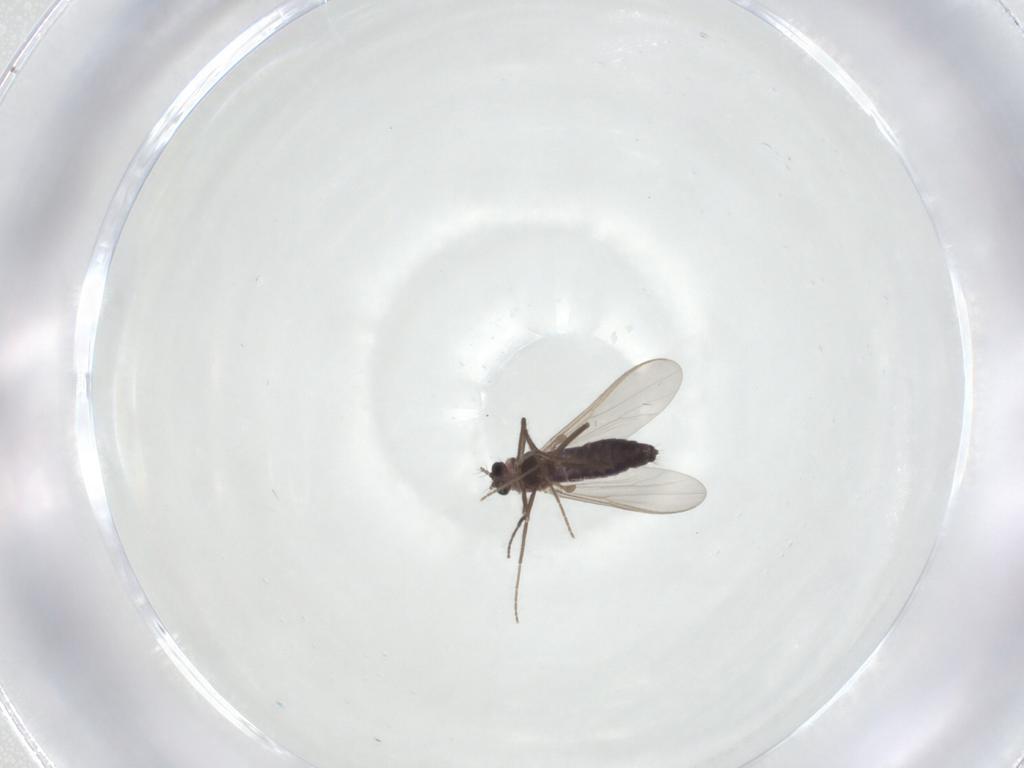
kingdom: Animalia
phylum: Arthropoda
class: Insecta
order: Diptera
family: Chironomidae
